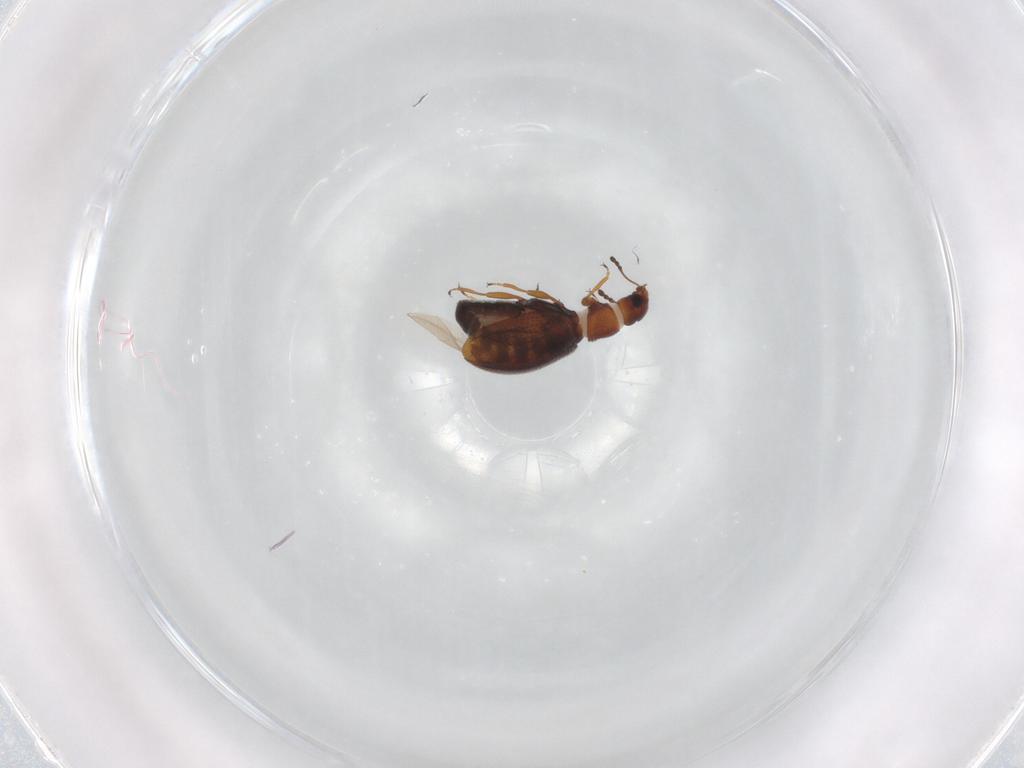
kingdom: Animalia
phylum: Arthropoda
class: Insecta
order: Coleoptera
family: Latridiidae
